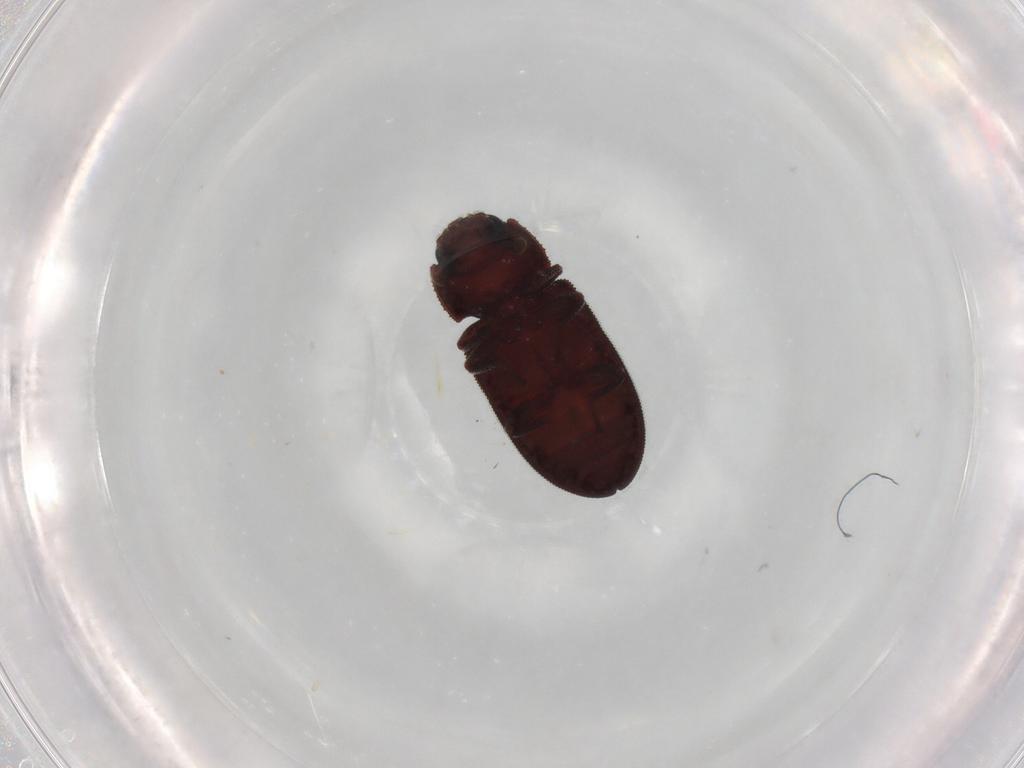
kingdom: Animalia
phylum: Arthropoda
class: Insecta
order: Coleoptera
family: Zopheridae
